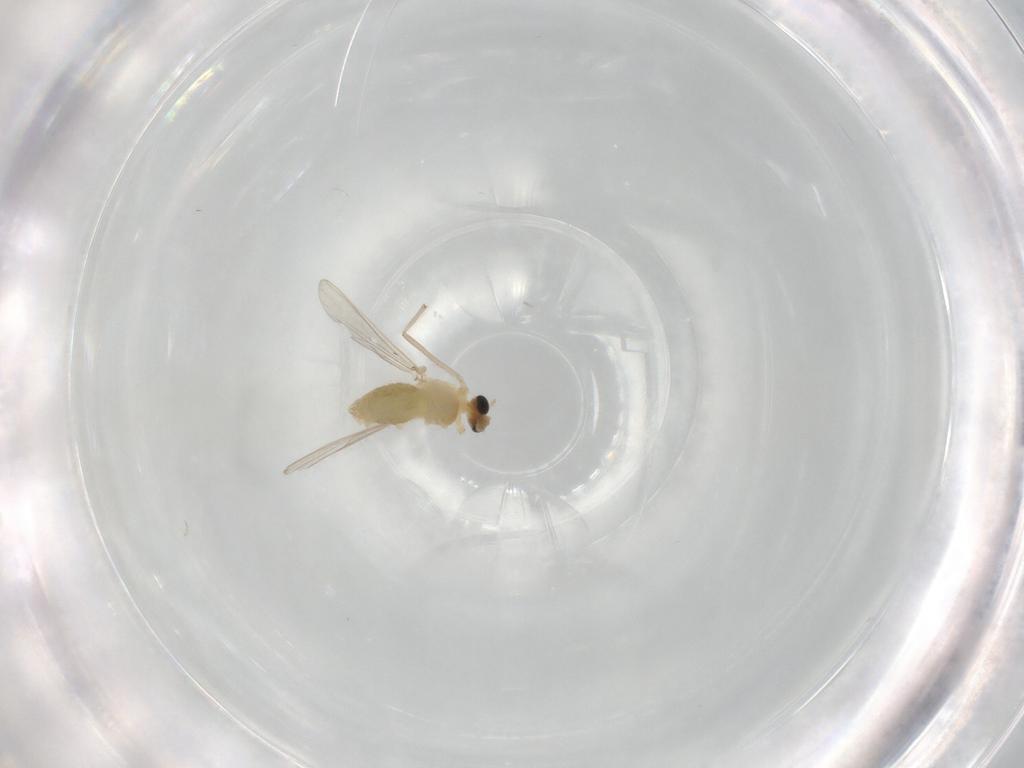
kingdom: Animalia
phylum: Arthropoda
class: Insecta
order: Diptera
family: Chironomidae
